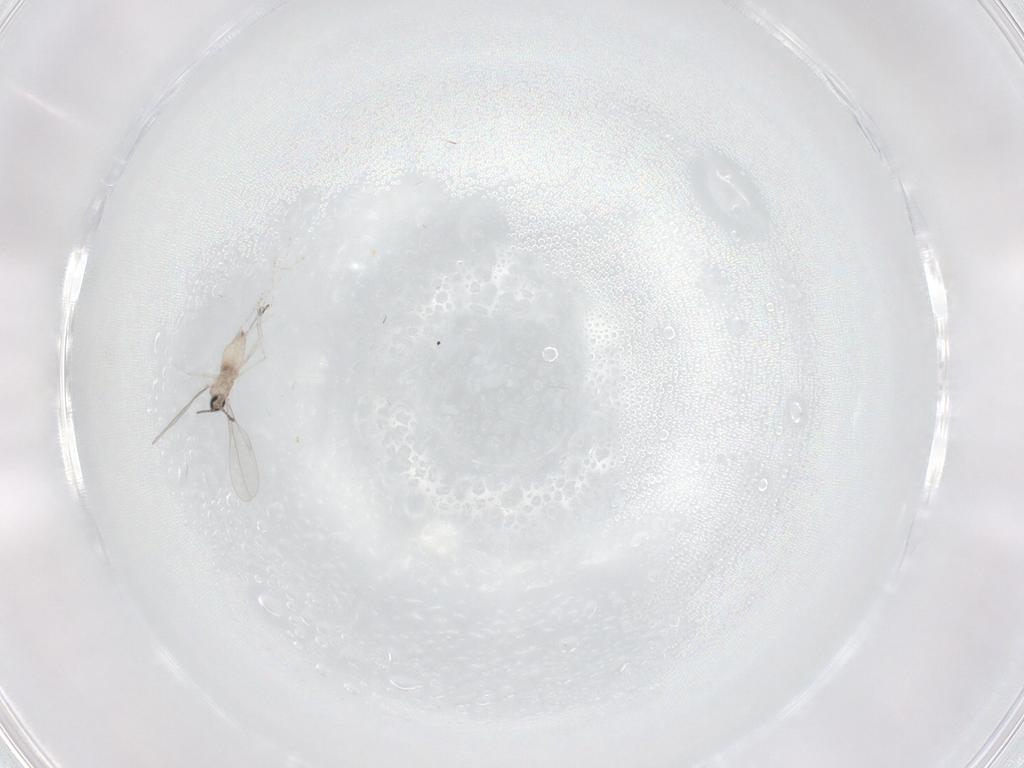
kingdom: Animalia
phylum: Arthropoda
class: Insecta
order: Diptera
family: Chironomidae
